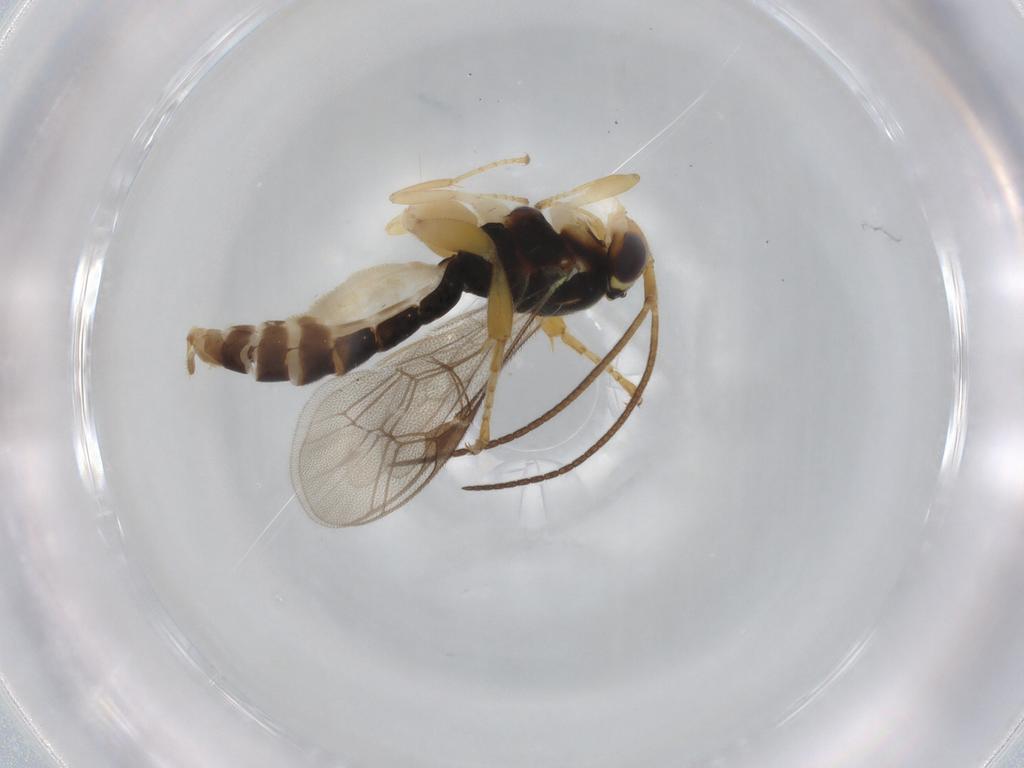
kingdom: Animalia
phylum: Arthropoda
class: Insecta
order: Hymenoptera
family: Ichneumonidae
